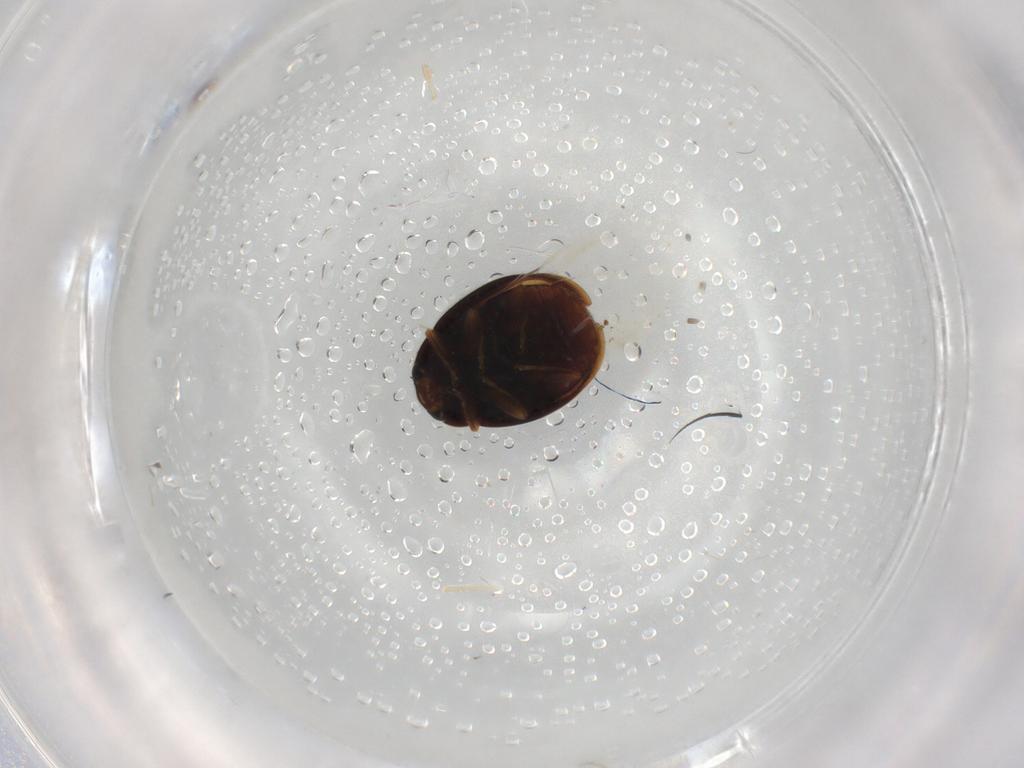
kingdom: Animalia
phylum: Arthropoda
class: Insecta
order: Coleoptera
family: Coccinellidae
